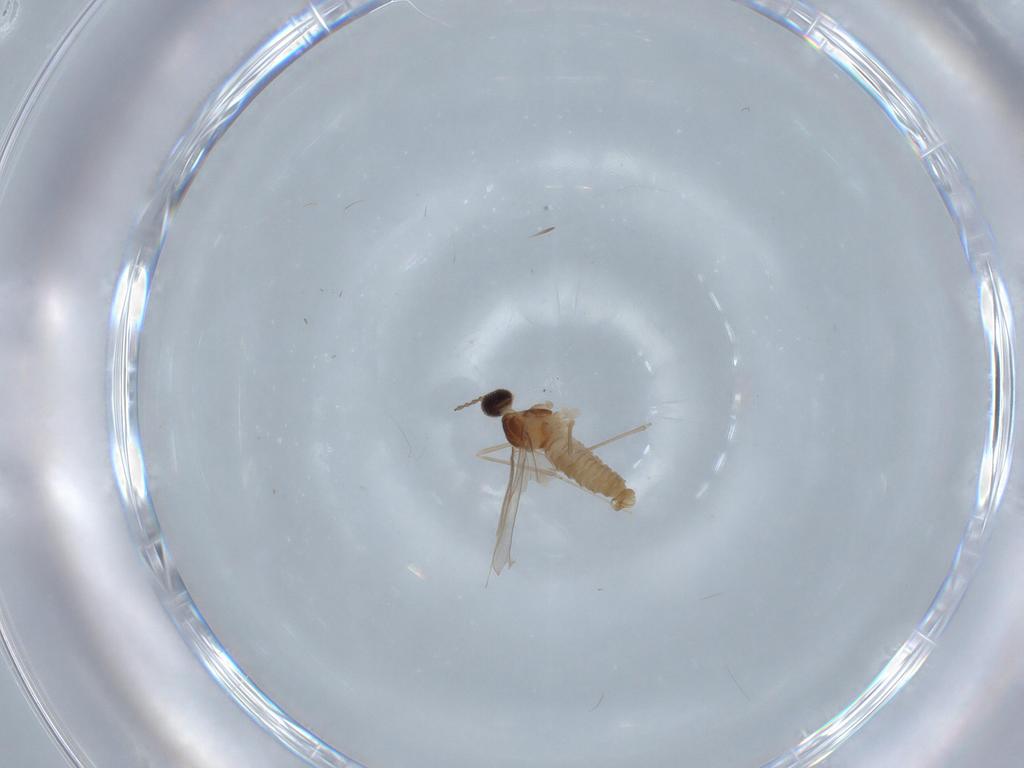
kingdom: Animalia
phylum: Arthropoda
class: Insecta
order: Diptera
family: Cecidomyiidae
